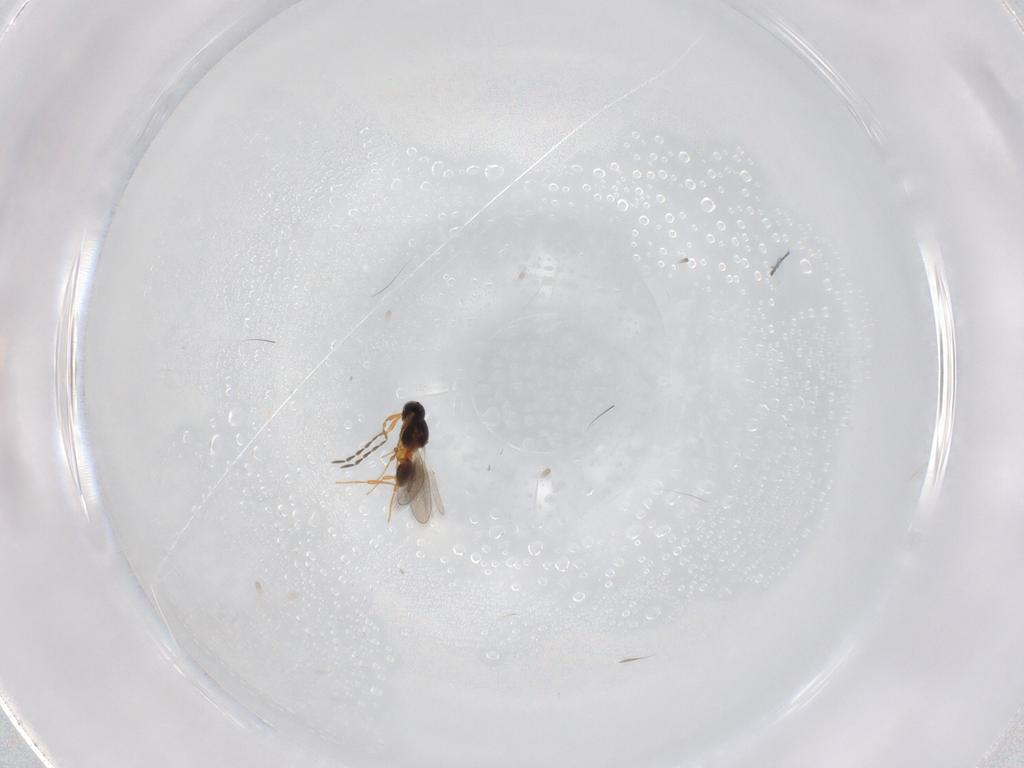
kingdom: Animalia
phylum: Arthropoda
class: Insecta
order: Hymenoptera
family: Platygastridae
